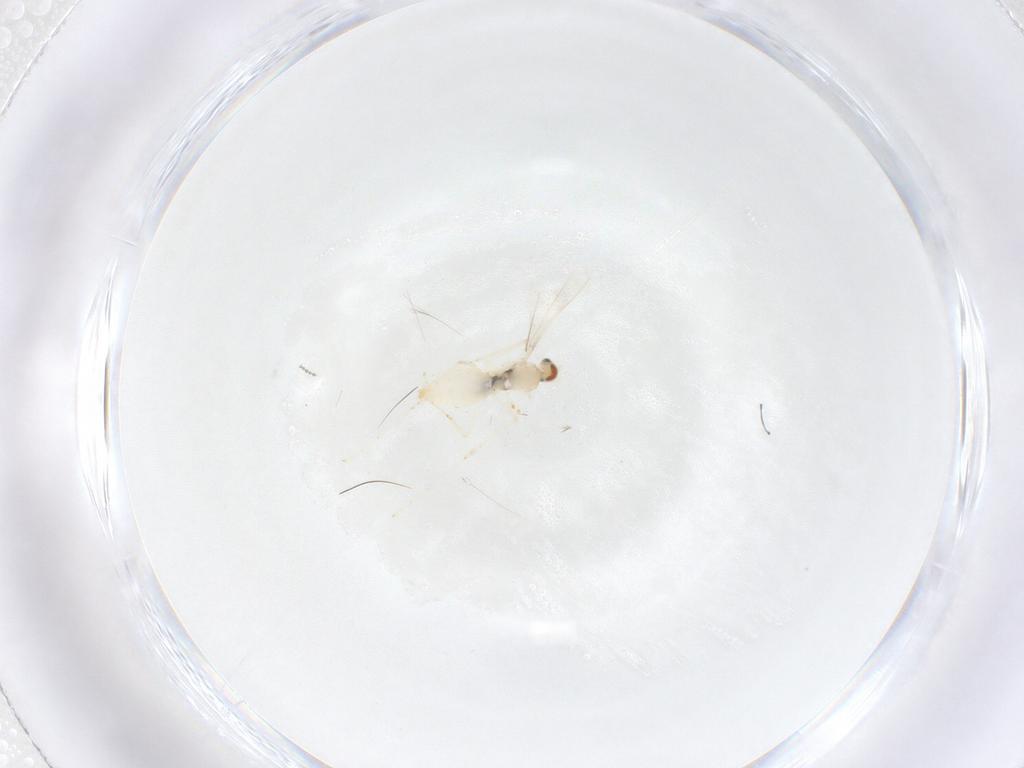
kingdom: Animalia
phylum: Arthropoda
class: Insecta
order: Diptera
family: Cecidomyiidae
